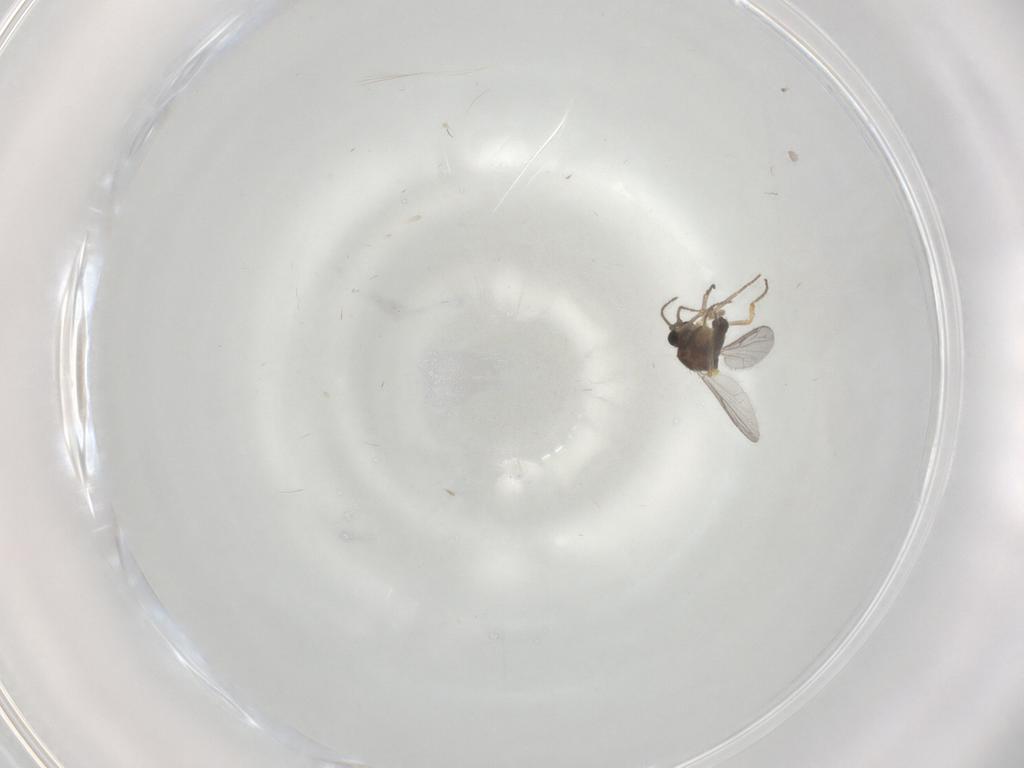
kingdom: Animalia
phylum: Arthropoda
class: Insecta
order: Diptera
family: Ceratopogonidae
